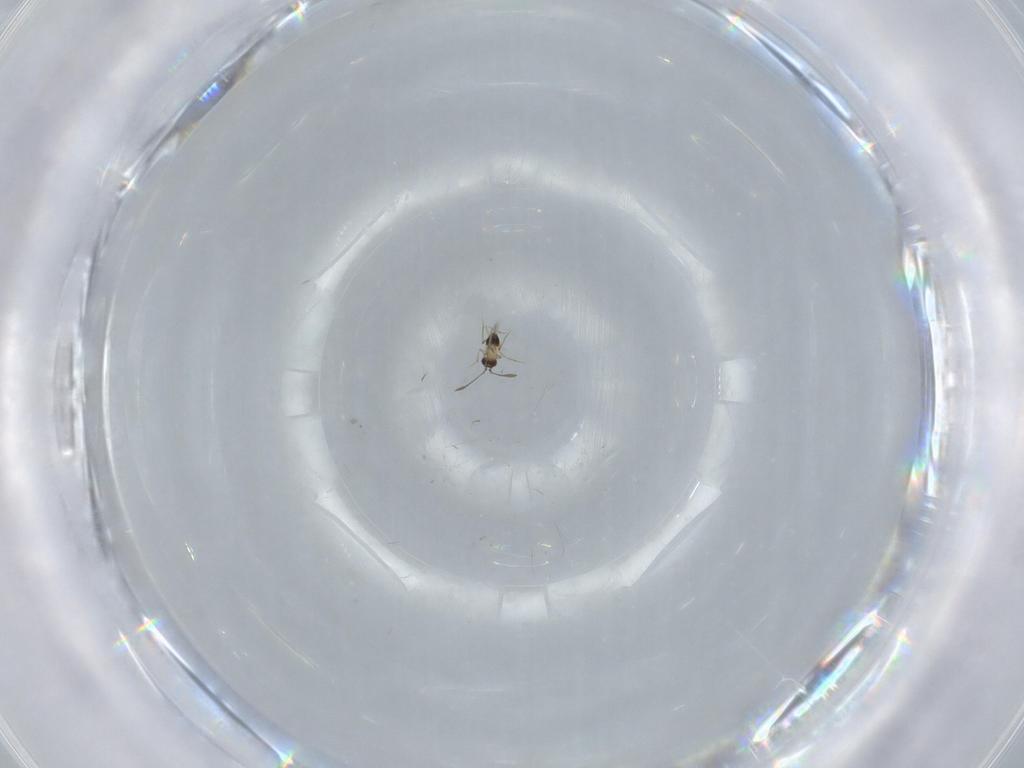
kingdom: Animalia
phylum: Arthropoda
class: Insecta
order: Hymenoptera
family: Mymaridae
